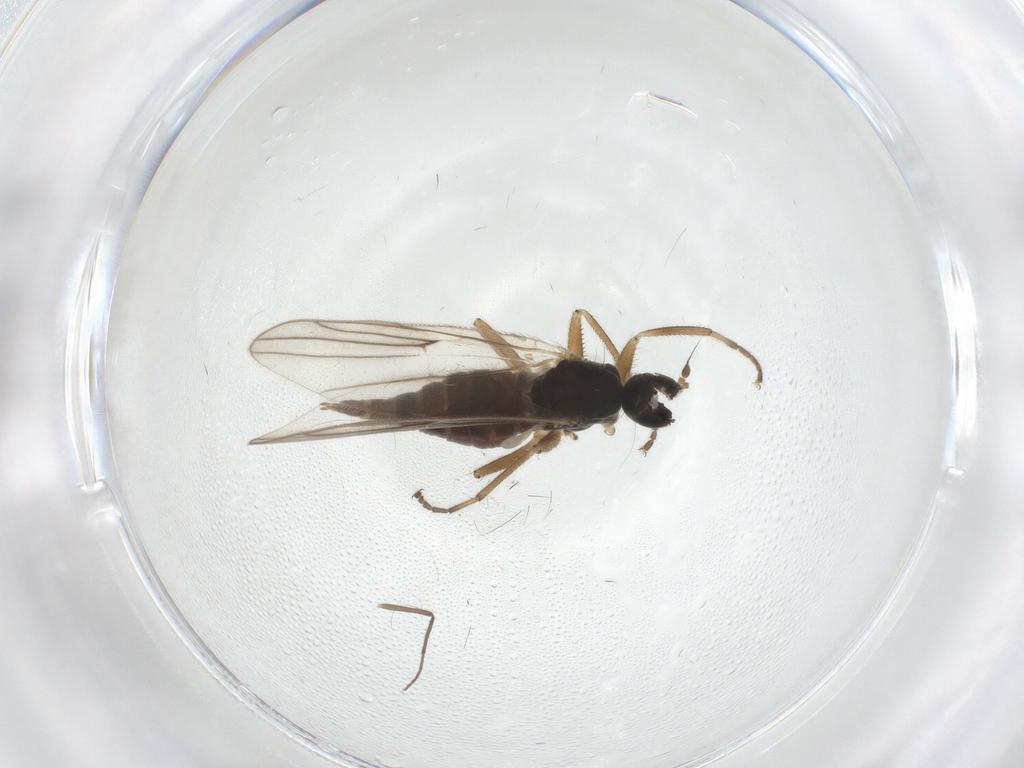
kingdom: Animalia
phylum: Arthropoda
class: Insecta
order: Diptera
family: Hybotidae
